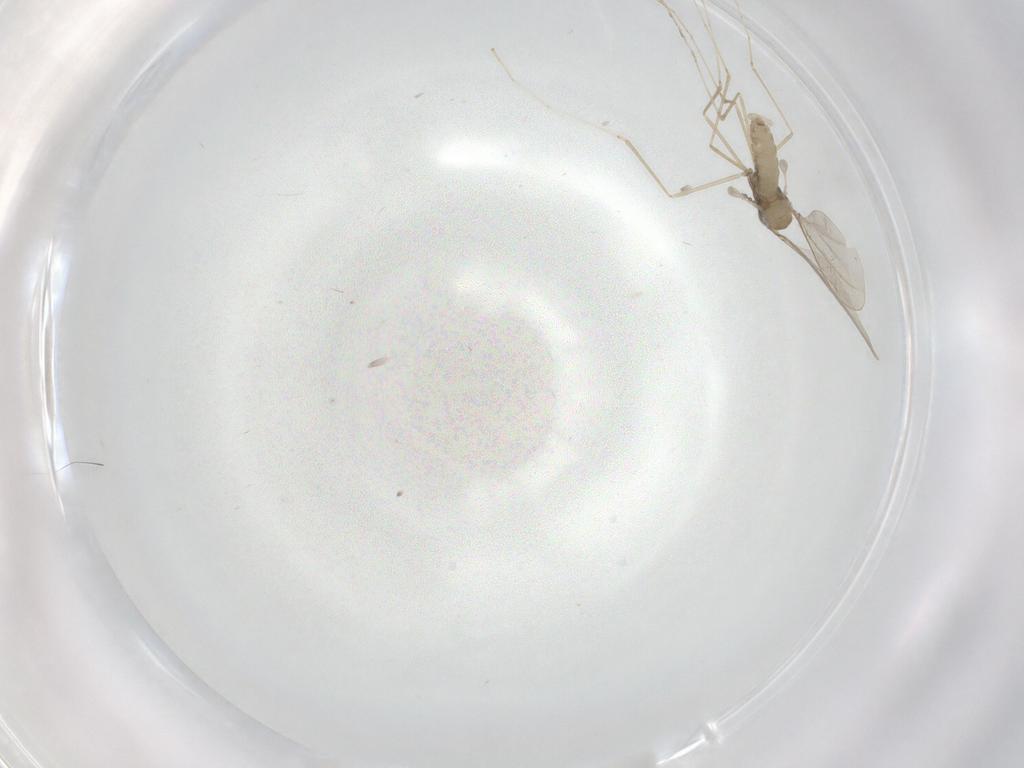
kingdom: Animalia
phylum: Arthropoda
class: Insecta
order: Diptera
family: Cecidomyiidae
